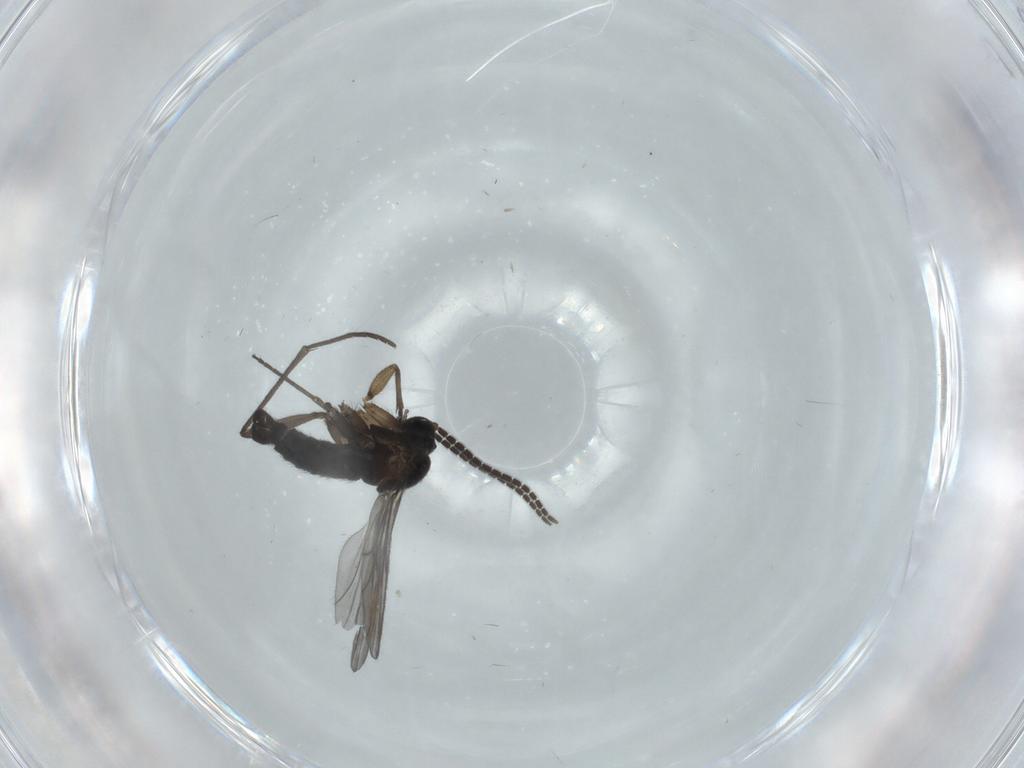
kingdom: Animalia
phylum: Arthropoda
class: Insecta
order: Diptera
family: Sciaridae
